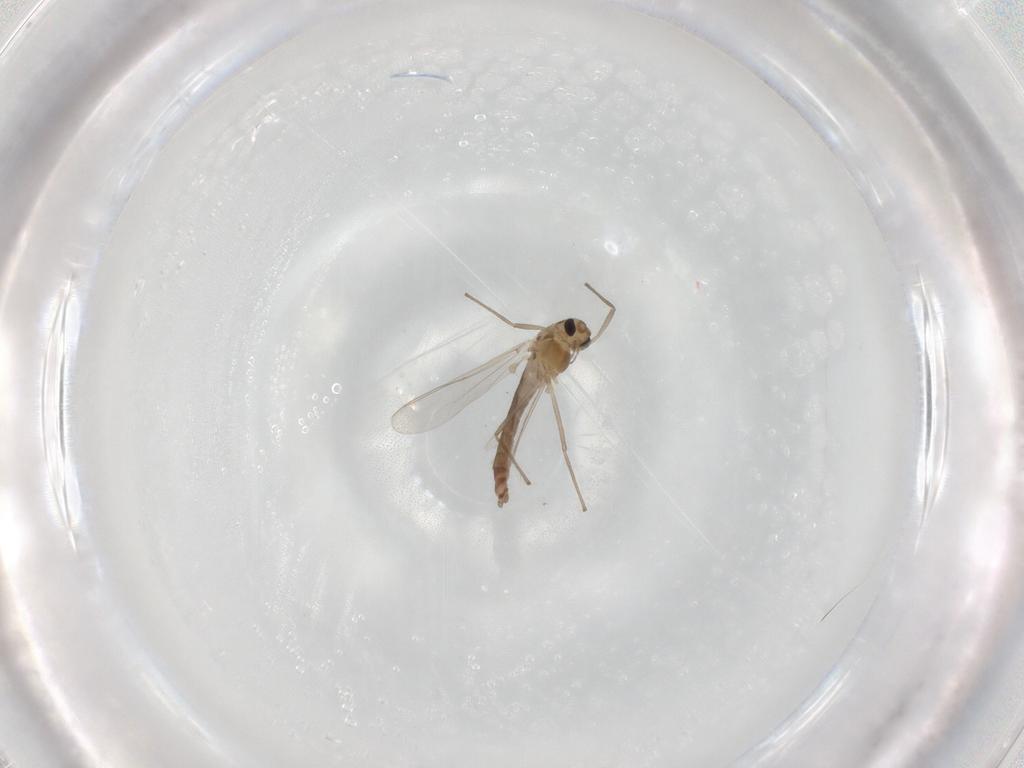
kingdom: Animalia
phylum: Arthropoda
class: Insecta
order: Diptera
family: Chironomidae
